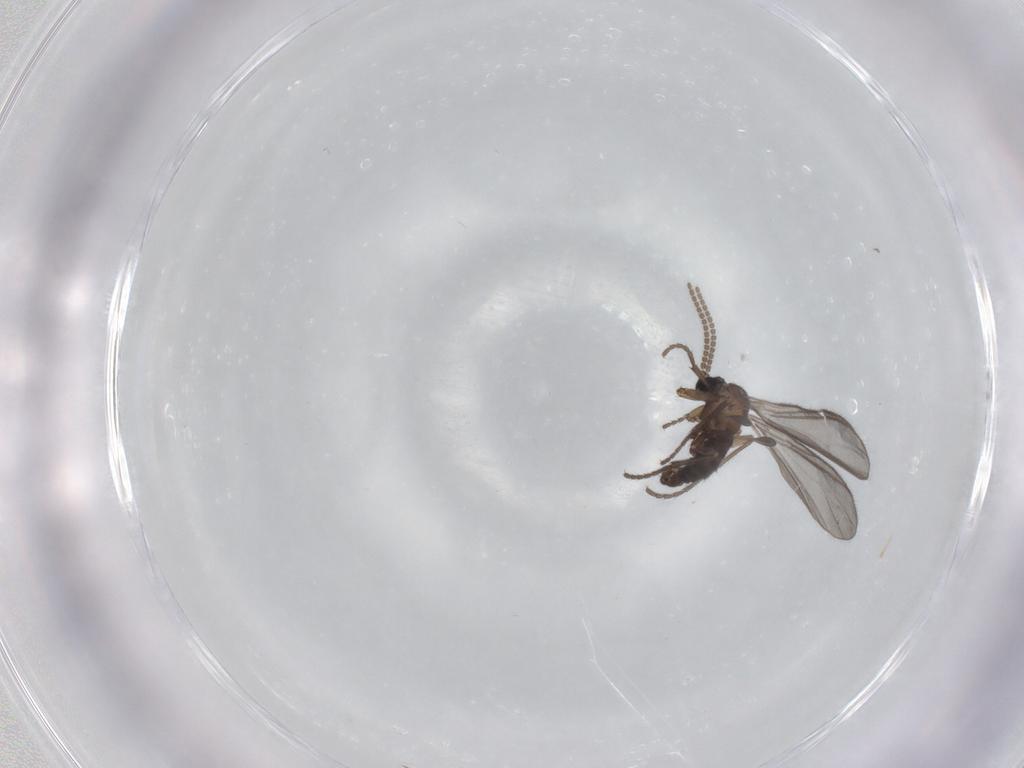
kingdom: Animalia
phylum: Arthropoda
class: Insecta
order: Diptera
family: Sciaridae
